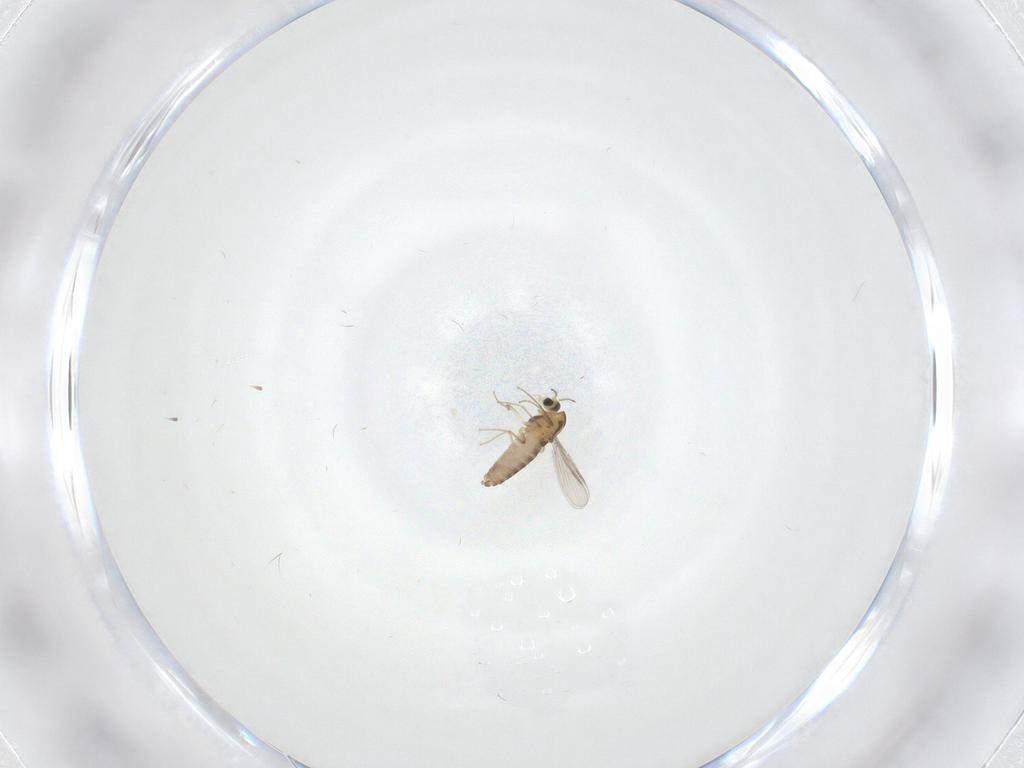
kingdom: Animalia
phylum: Arthropoda
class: Insecta
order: Diptera
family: Chironomidae
